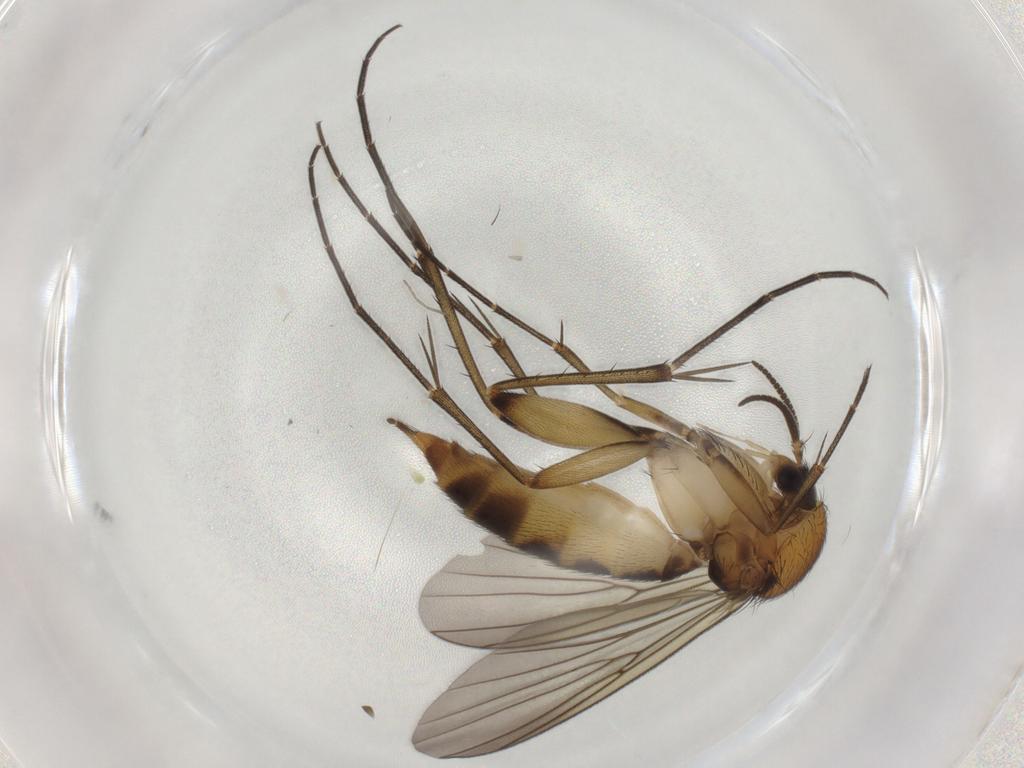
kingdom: Animalia
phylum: Arthropoda
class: Insecta
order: Diptera
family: Mycetophilidae
